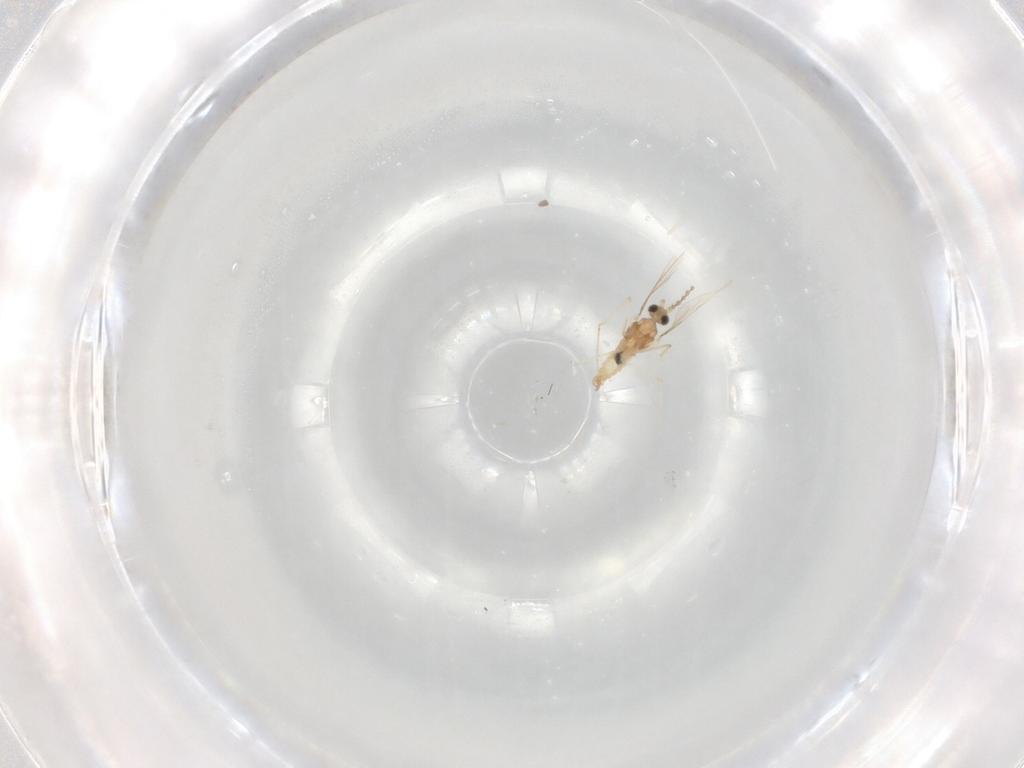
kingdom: Animalia
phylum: Arthropoda
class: Insecta
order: Diptera
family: Cecidomyiidae
